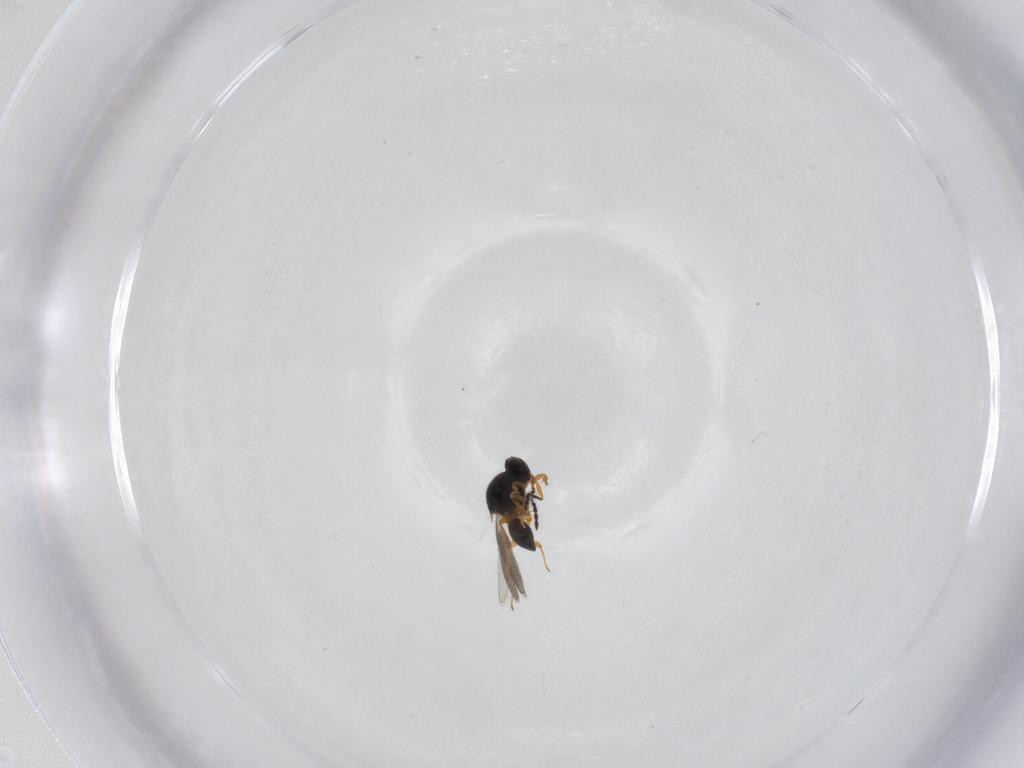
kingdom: Animalia
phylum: Arthropoda
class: Insecta
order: Hymenoptera
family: Platygastridae
